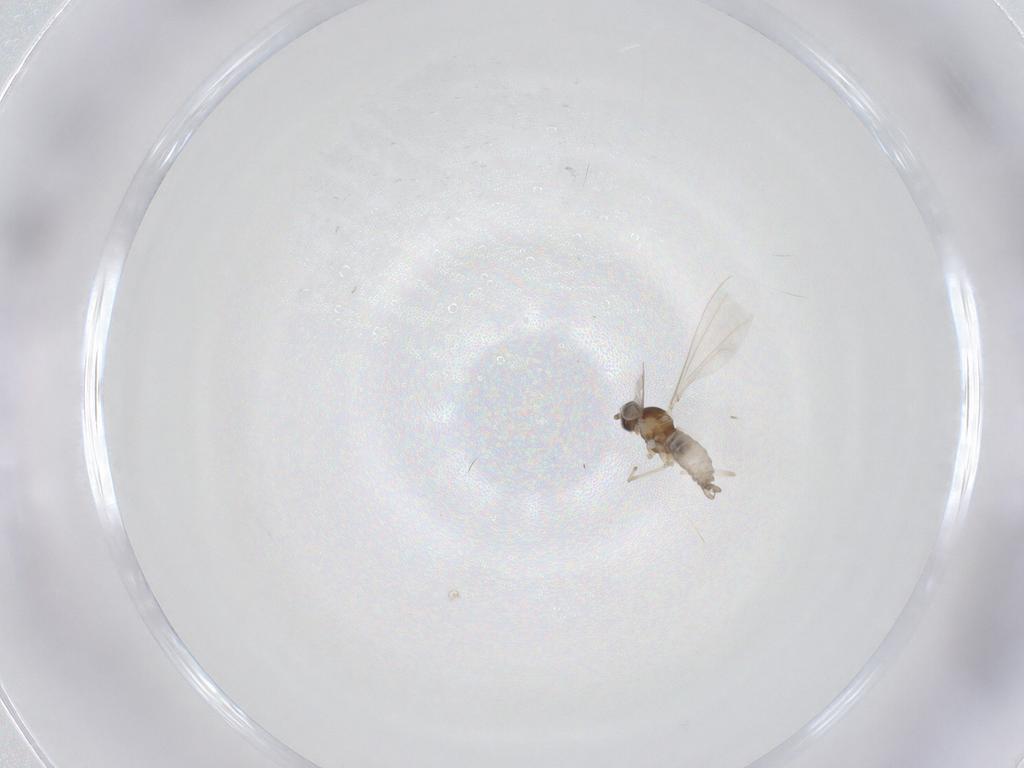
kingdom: Animalia
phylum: Arthropoda
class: Insecta
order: Diptera
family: Cecidomyiidae
